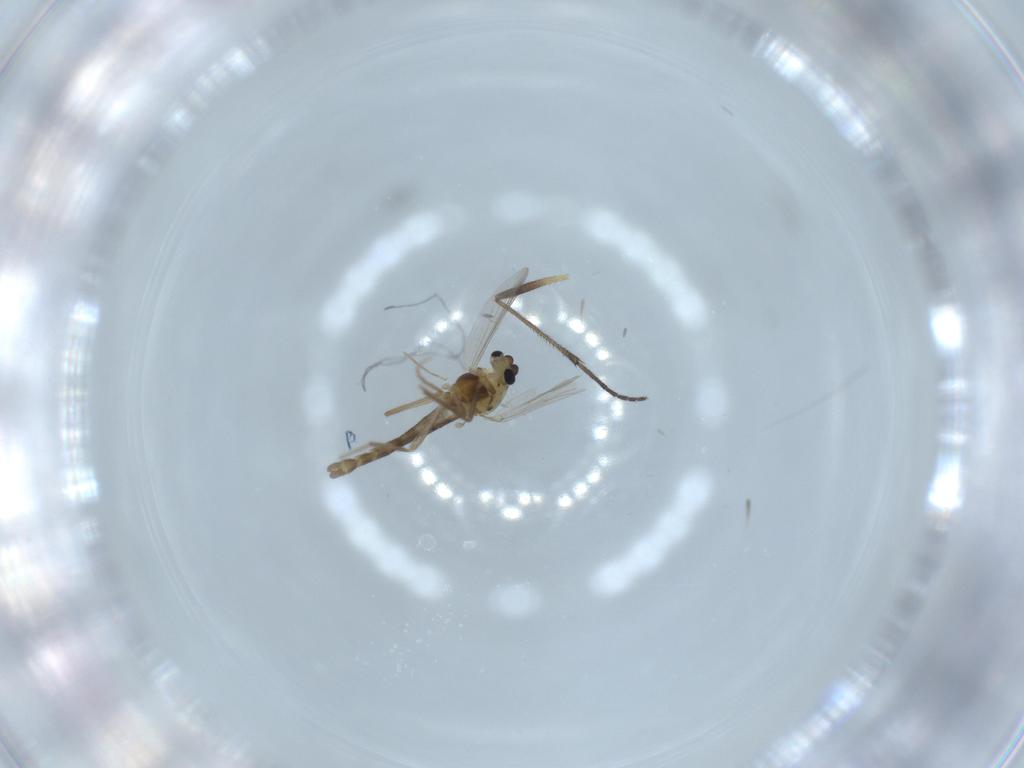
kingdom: Animalia
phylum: Arthropoda
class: Insecta
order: Diptera
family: Chironomidae
